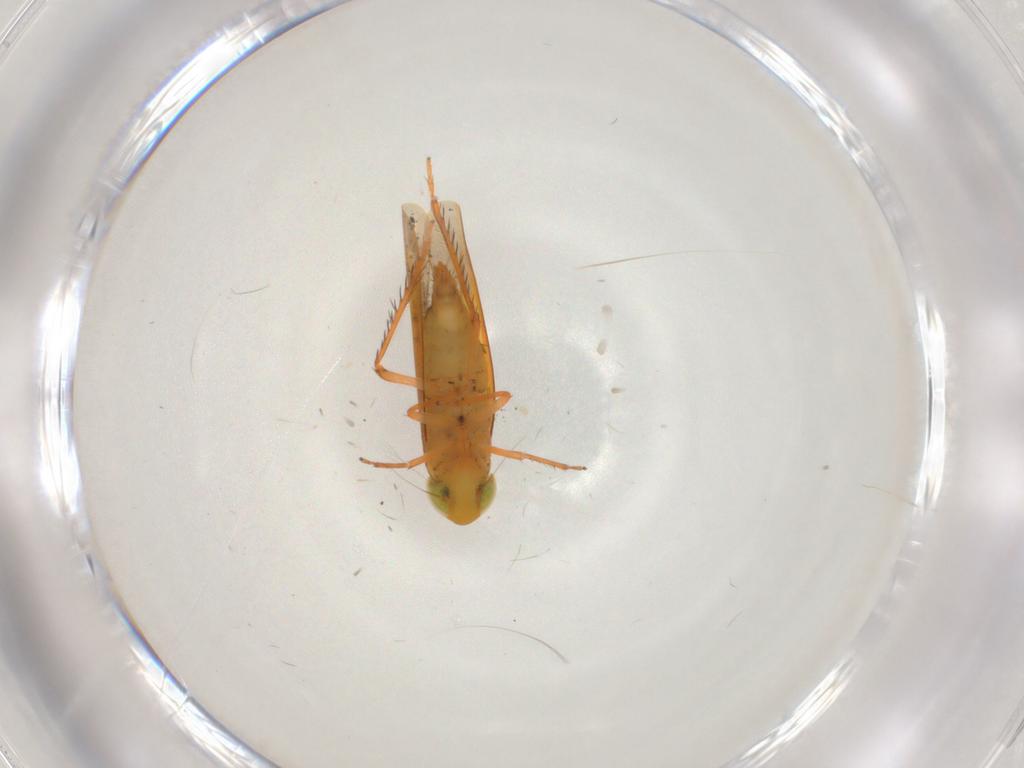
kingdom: Animalia
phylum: Arthropoda
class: Insecta
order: Hemiptera
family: Cicadellidae
